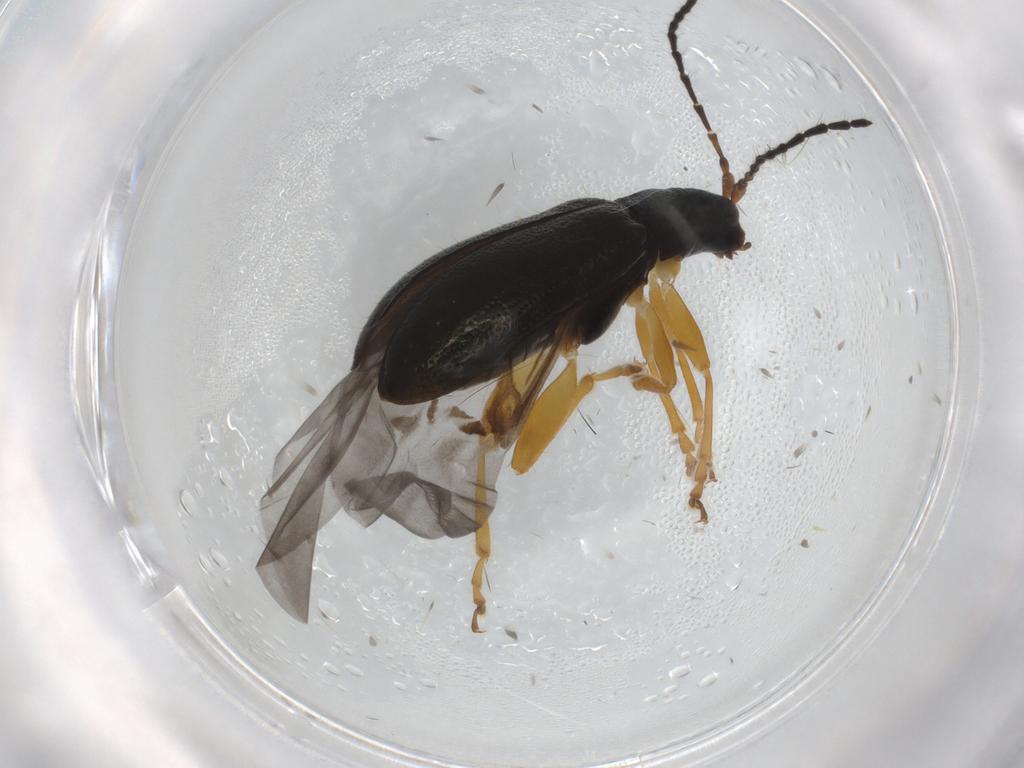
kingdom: Animalia
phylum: Arthropoda
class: Insecta
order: Coleoptera
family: Chrysomelidae
